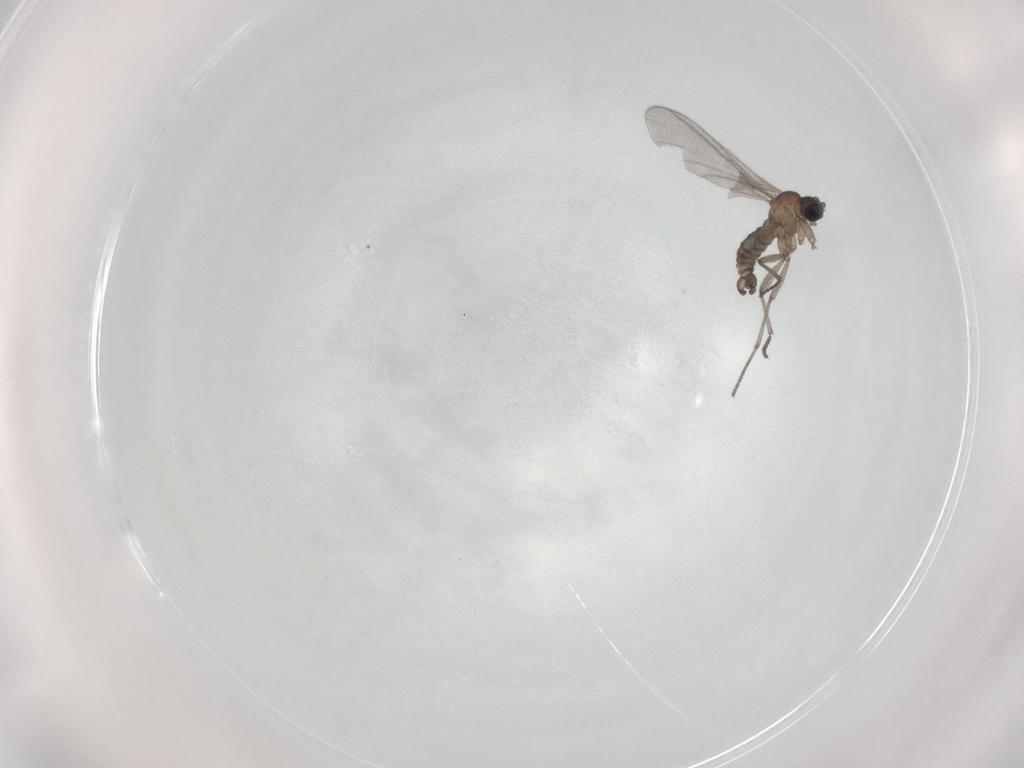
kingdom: Animalia
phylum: Arthropoda
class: Insecta
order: Diptera
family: Sciaridae
